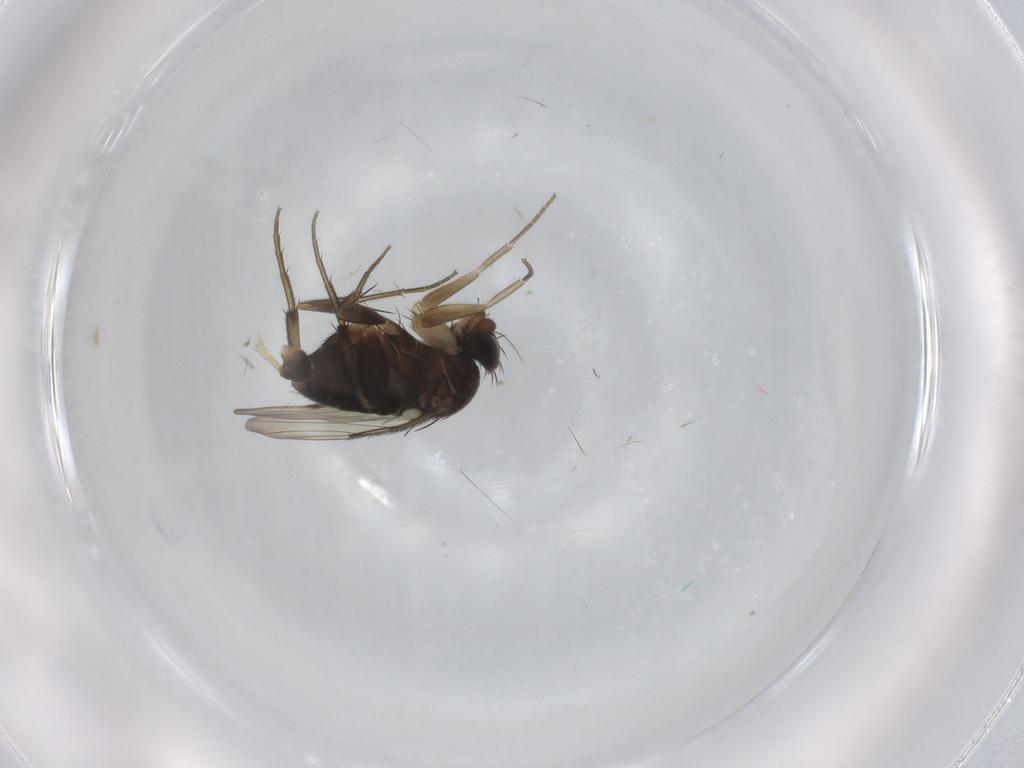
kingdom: Animalia
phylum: Arthropoda
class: Insecta
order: Diptera
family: Phoridae
